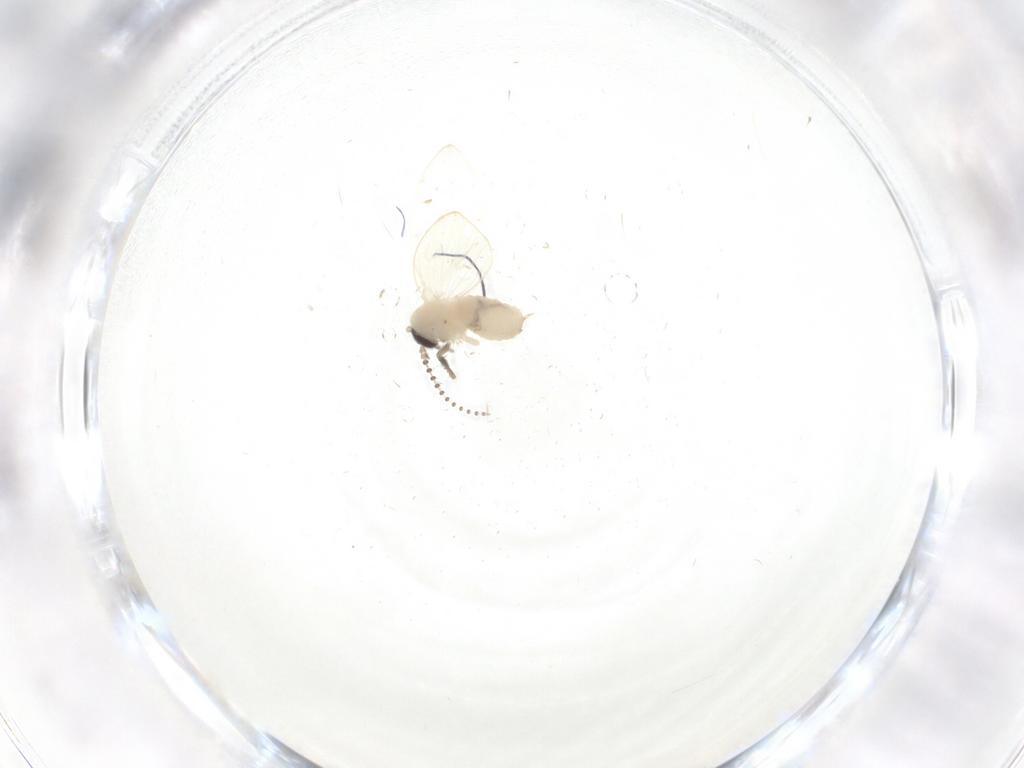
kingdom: Animalia
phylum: Arthropoda
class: Insecta
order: Diptera
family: Psychodidae
